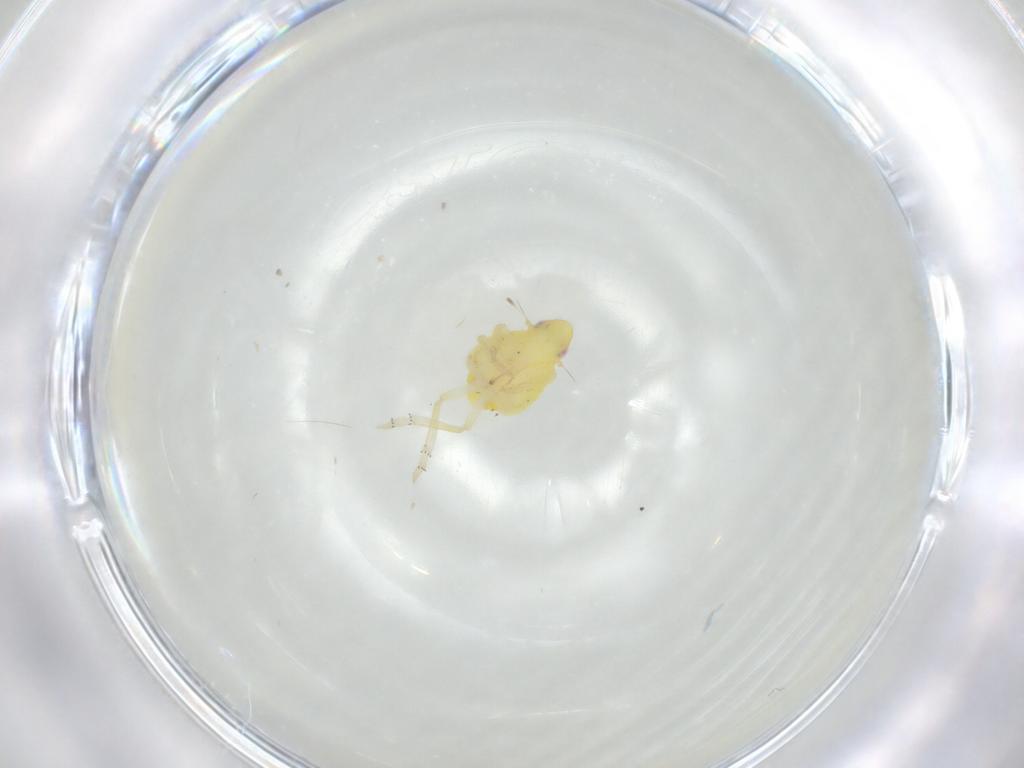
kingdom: Animalia
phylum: Arthropoda
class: Insecta
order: Hemiptera
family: Tropiduchidae
